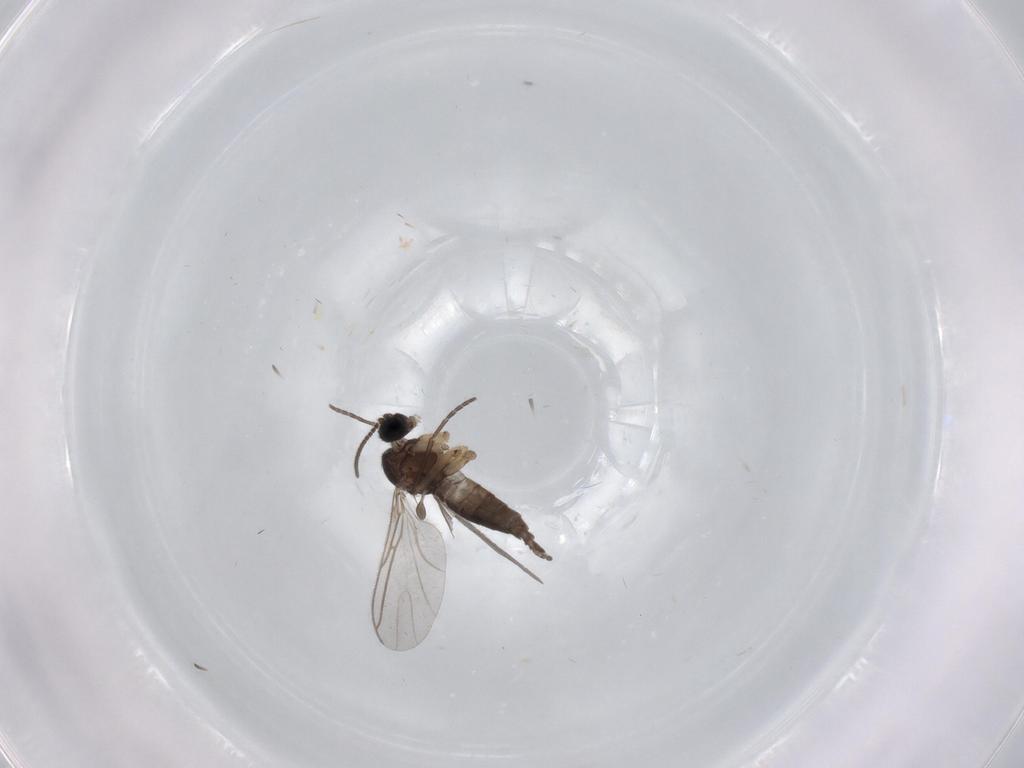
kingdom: Animalia
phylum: Arthropoda
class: Insecta
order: Diptera
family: Sciaridae
